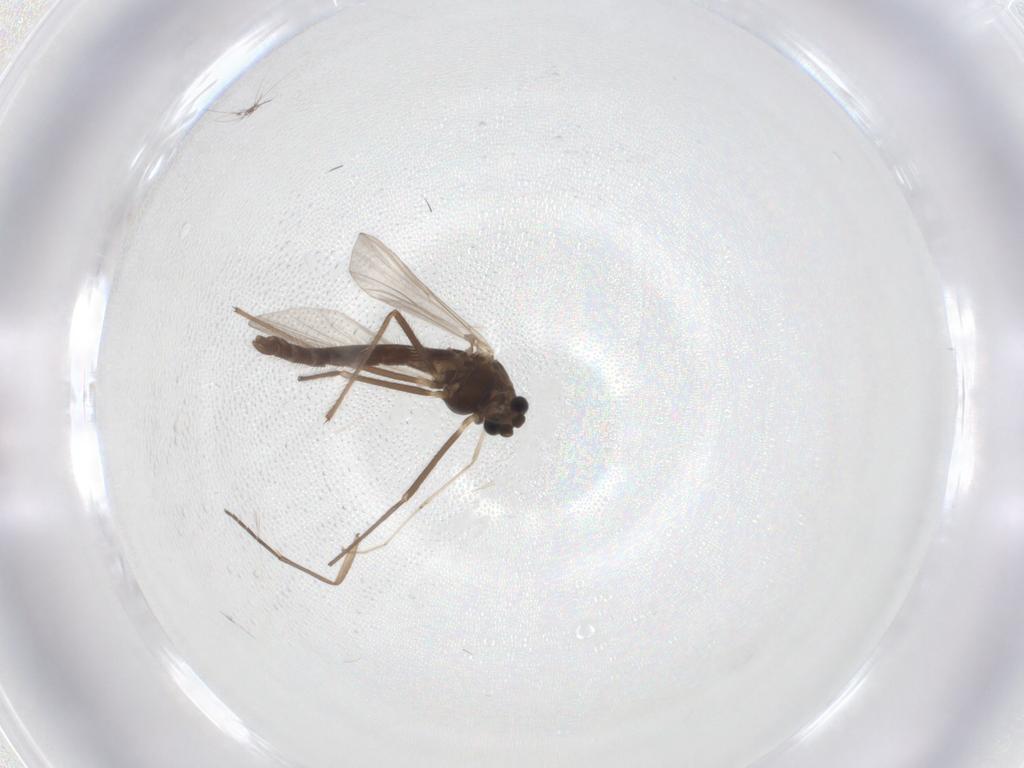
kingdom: Animalia
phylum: Arthropoda
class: Insecta
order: Diptera
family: Chironomidae
